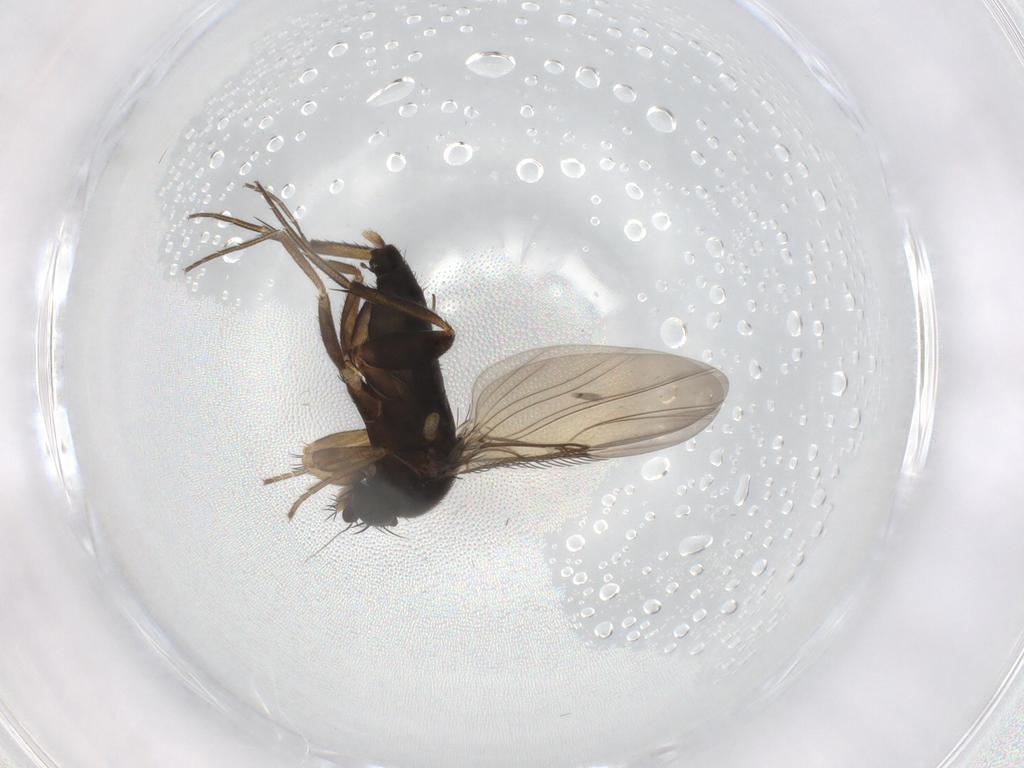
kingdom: Animalia
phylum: Arthropoda
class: Insecta
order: Diptera
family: Phoridae
